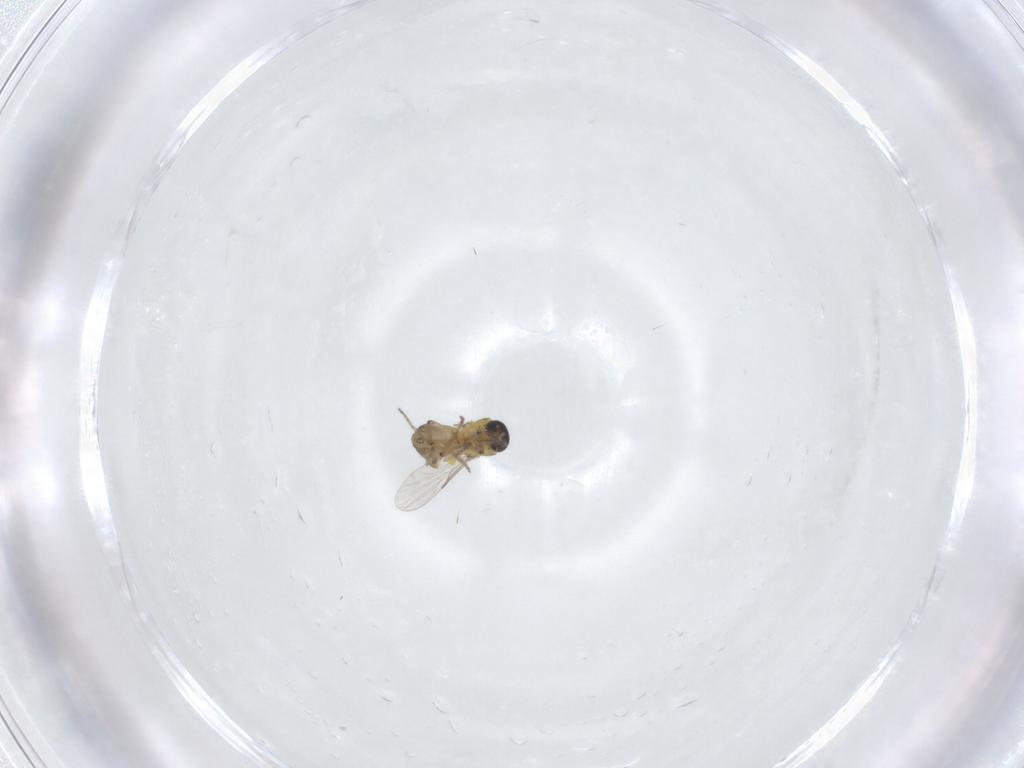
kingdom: Animalia
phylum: Arthropoda
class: Insecta
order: Diptera
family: Ceratopogonidae
